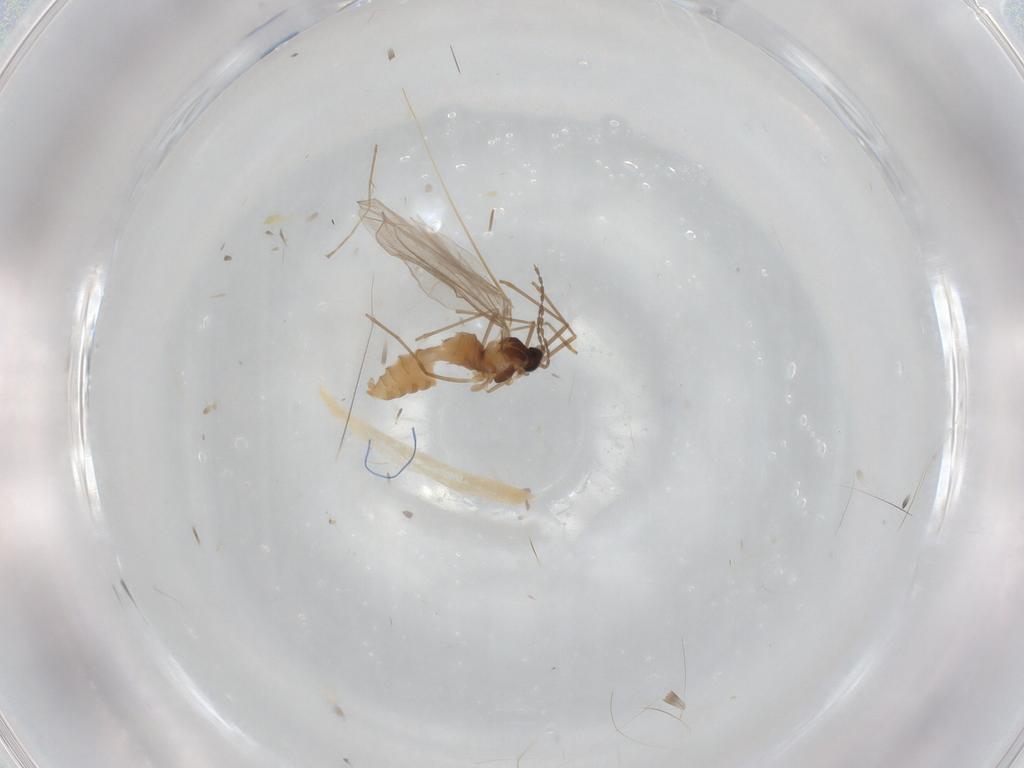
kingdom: Animalia
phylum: Arthropoda
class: Insecta
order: Diptera
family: Cecidomyiidae
